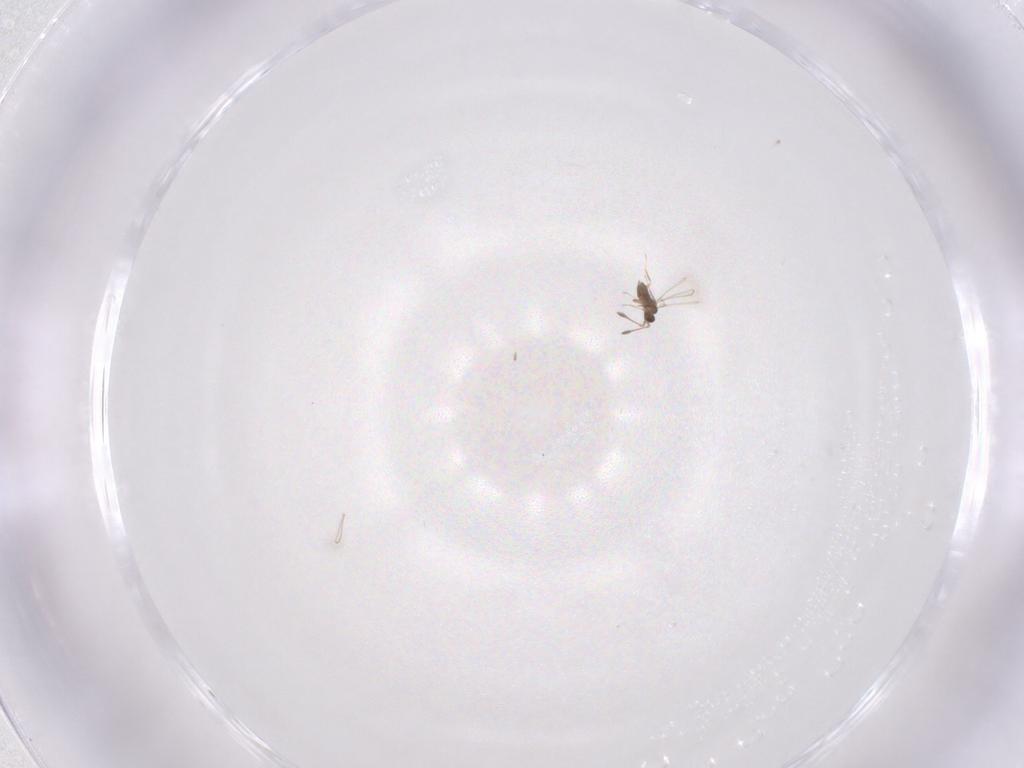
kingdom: Animalia
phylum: Arthropoda
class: Insecta
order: Hymenoptera
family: Mymaridae
